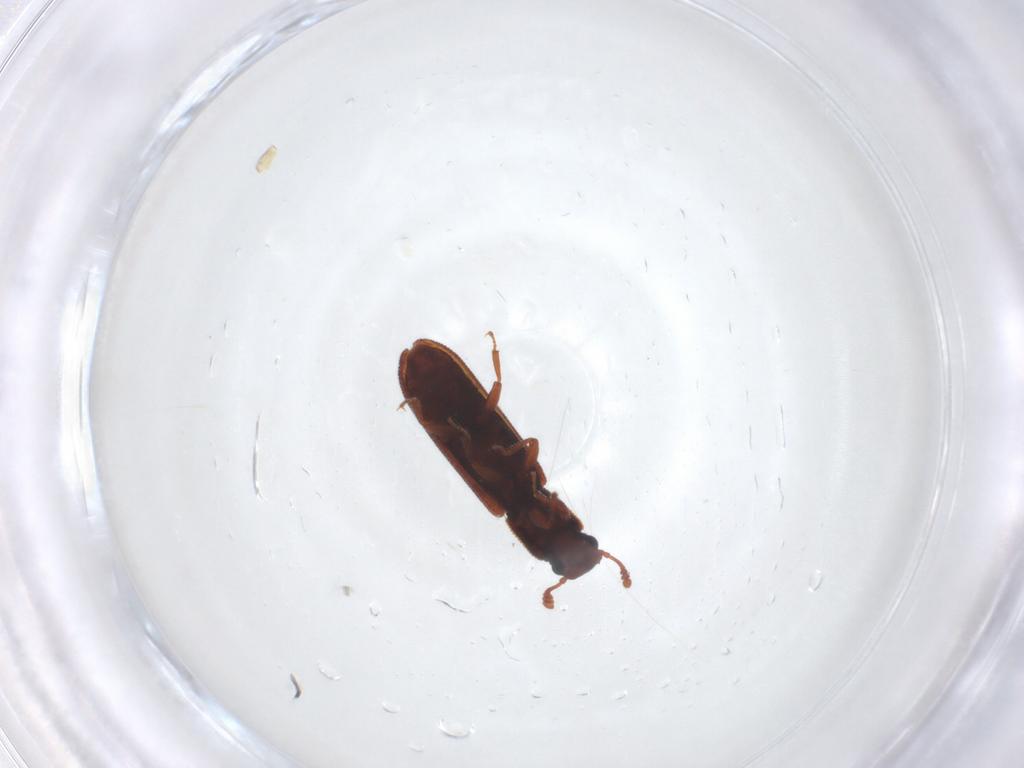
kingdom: Animalia
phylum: Arthropoda
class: Insecta
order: Coleoptera
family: Zopheridae
